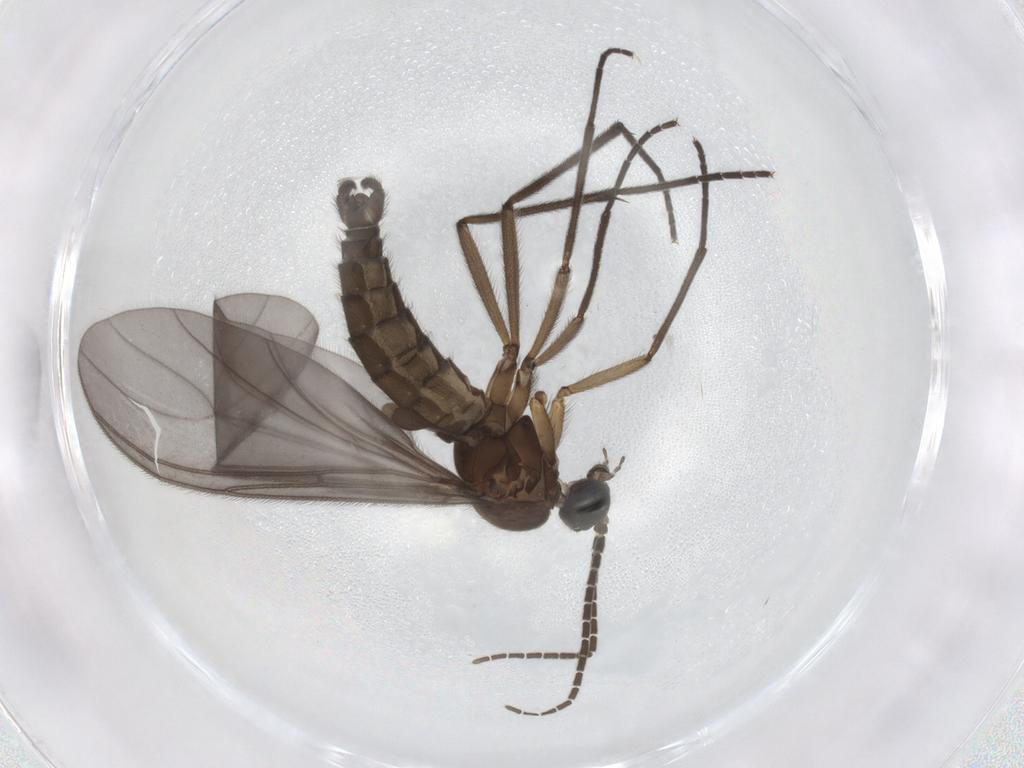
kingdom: Animalia
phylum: Arthropoda
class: Insecta
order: Diptera
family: Sciaridae
